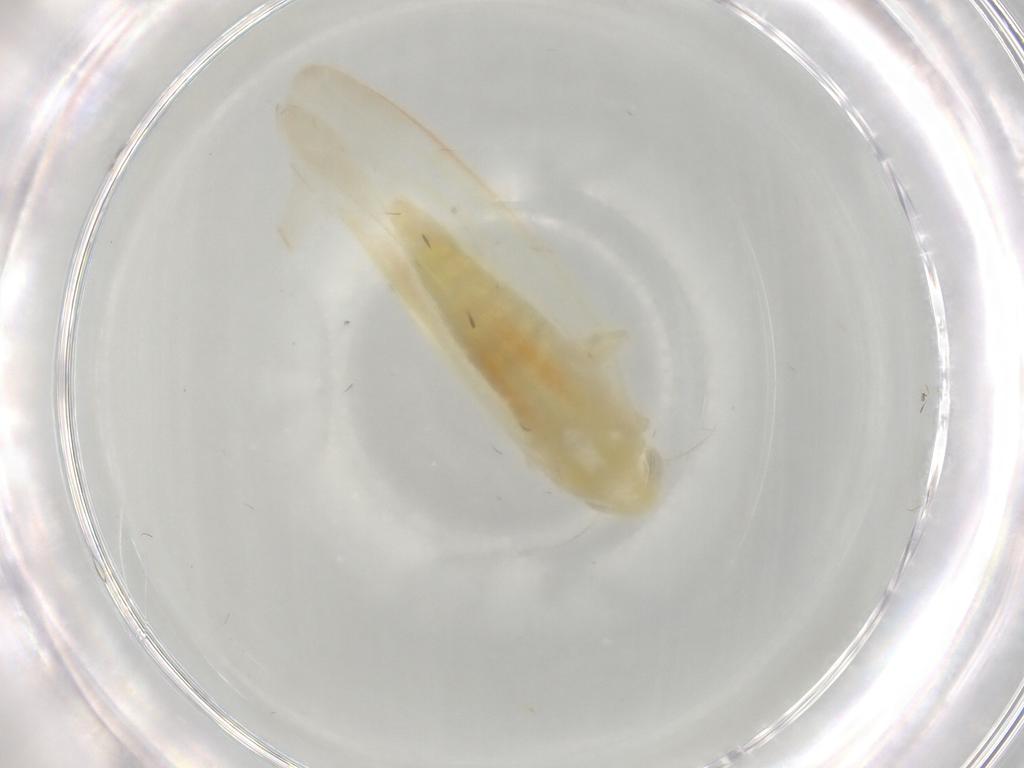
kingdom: Animalia
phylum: Arthropoda
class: Insecta
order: Hemiptera
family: Cicadellidae
